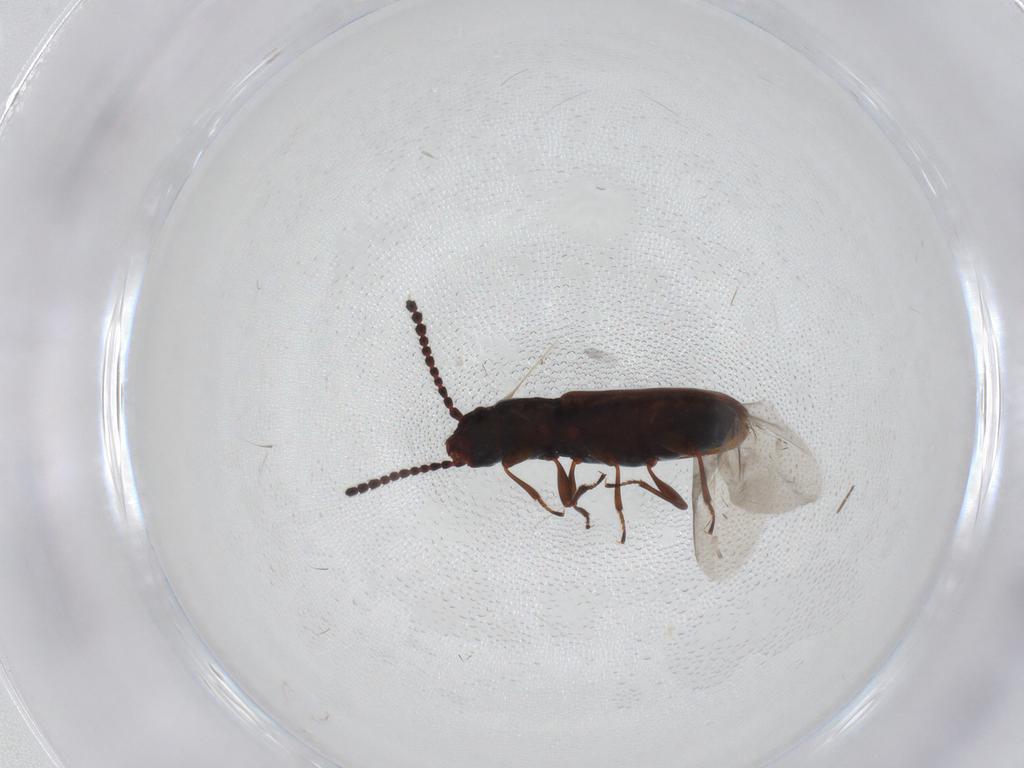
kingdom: Animalia
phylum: Arthropoda
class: Insecta
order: Coleoptera
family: Laemophloeidae
